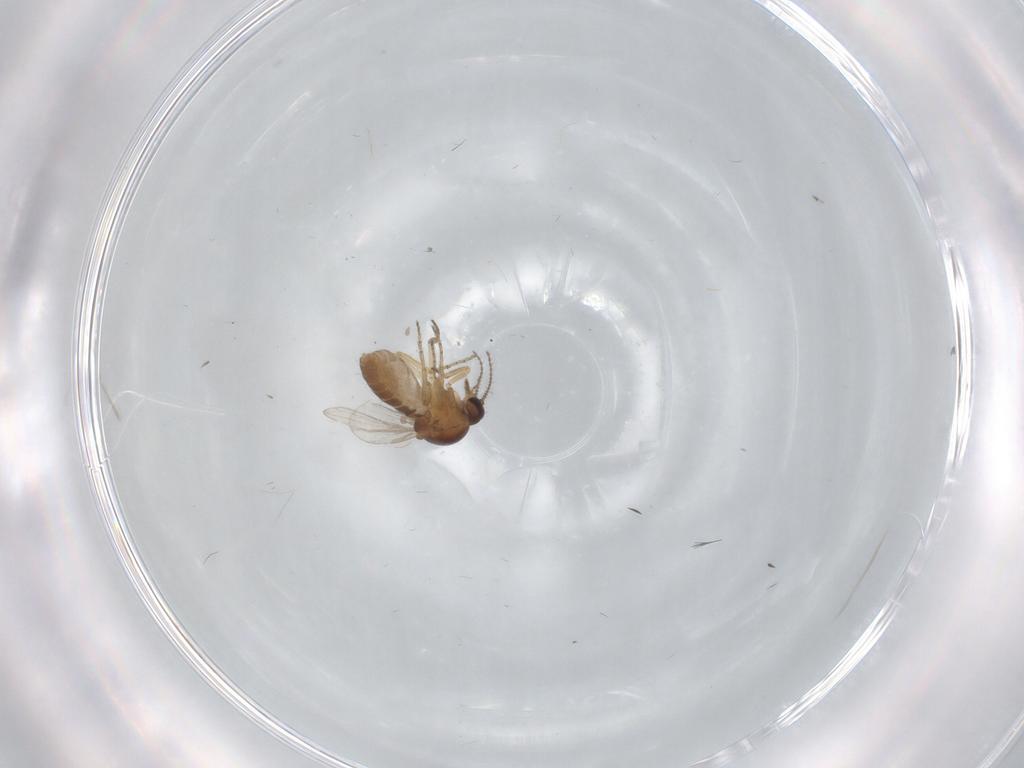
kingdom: Animalia
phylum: Arthropoda
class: Insecta
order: Diptera
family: Ceratopogonidae
